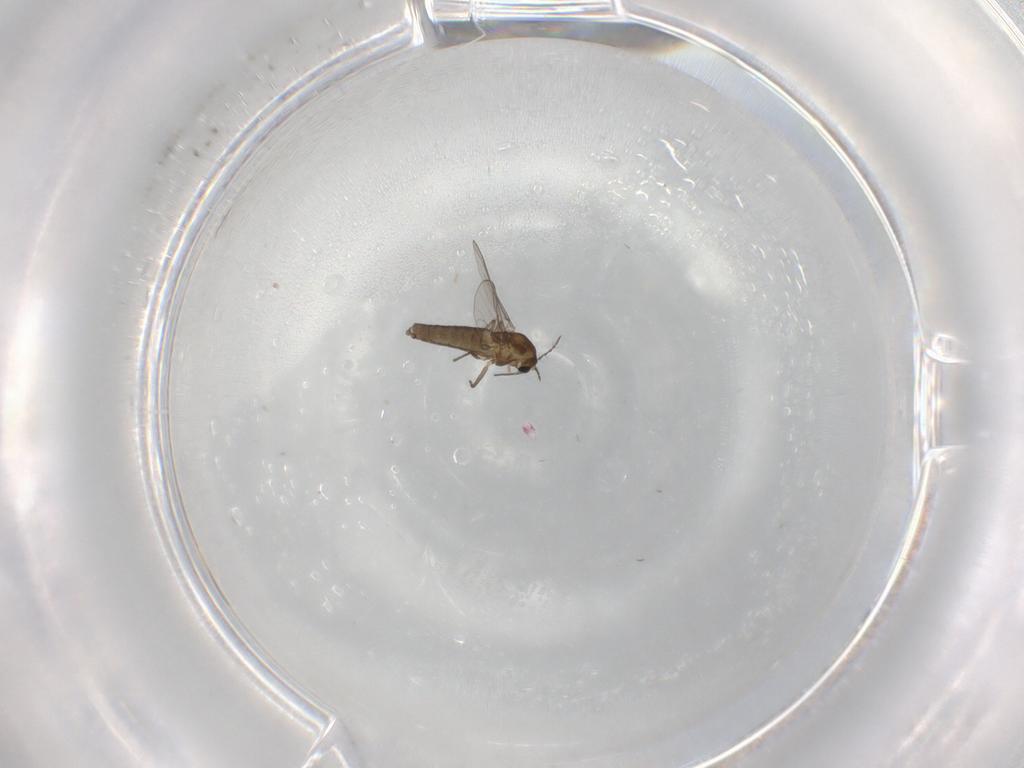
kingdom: Animalia
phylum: Arthropoda
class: Insecta
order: Diptera
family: Chironomidae
